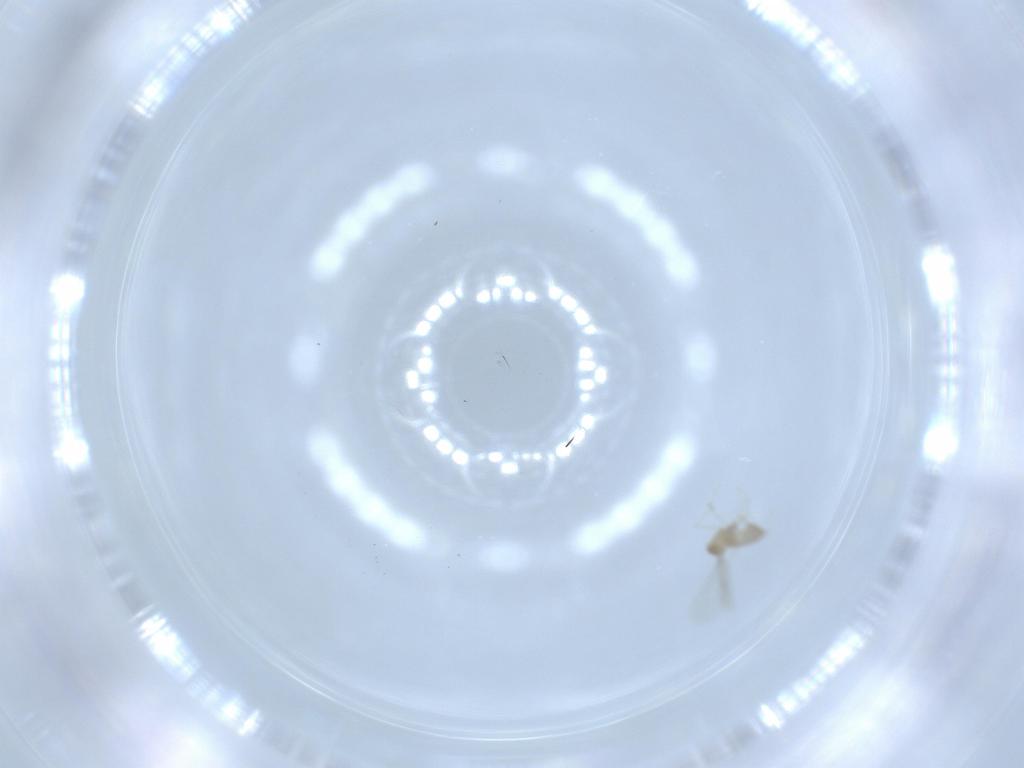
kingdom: Animalia
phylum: Arthropoda
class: Insecta
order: Diptera
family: Cecidomyiidae
